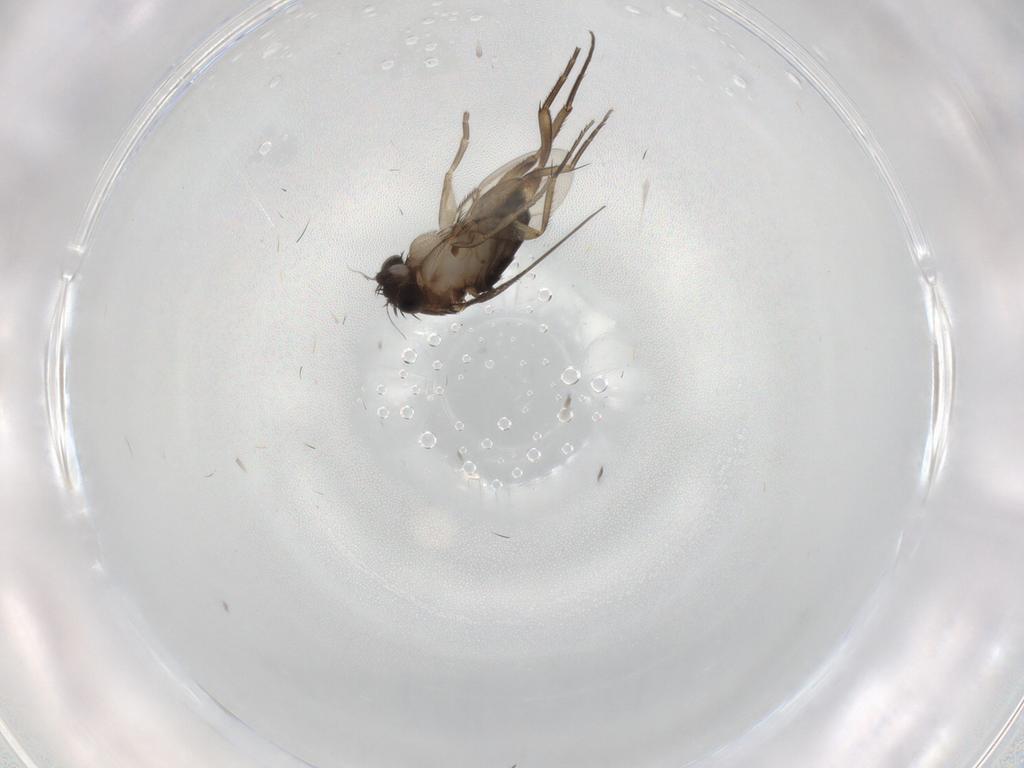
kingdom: Animalia
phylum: Arthropoda
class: Insecta
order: Diptera
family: Phoridae
